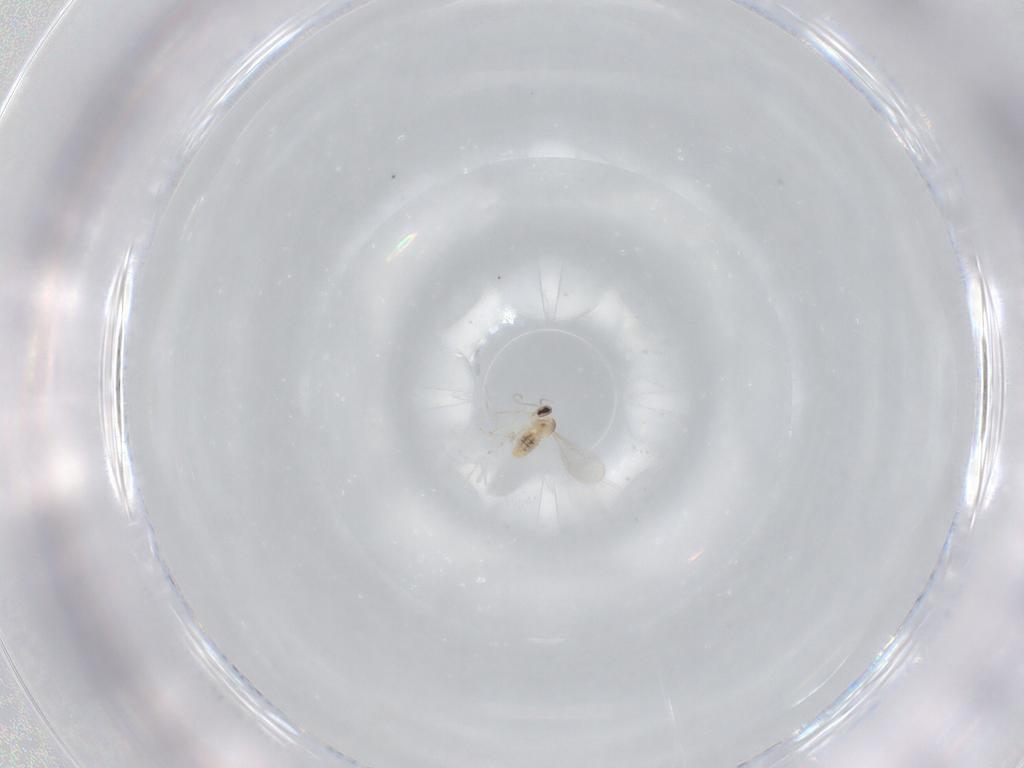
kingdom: Animalia
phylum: Arthropoda
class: Insecta
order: Diptera
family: Cecidomyiidae
